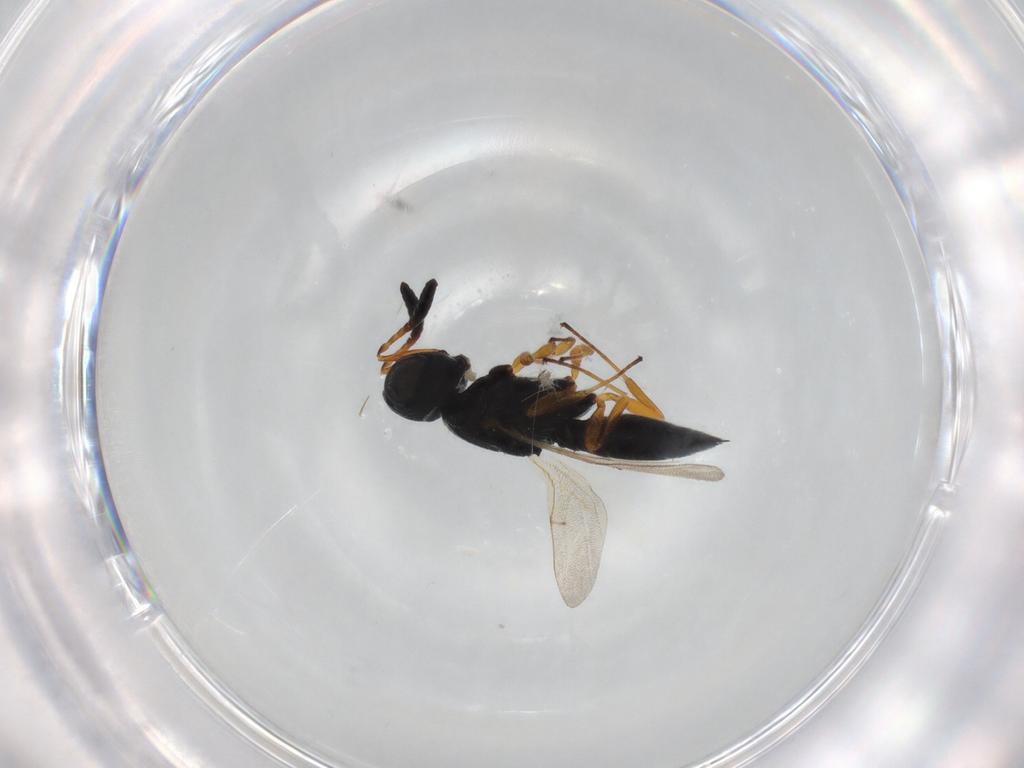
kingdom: Animalia
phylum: Arthropoda
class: Insecta
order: Hymenoptera
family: Scelionidae
